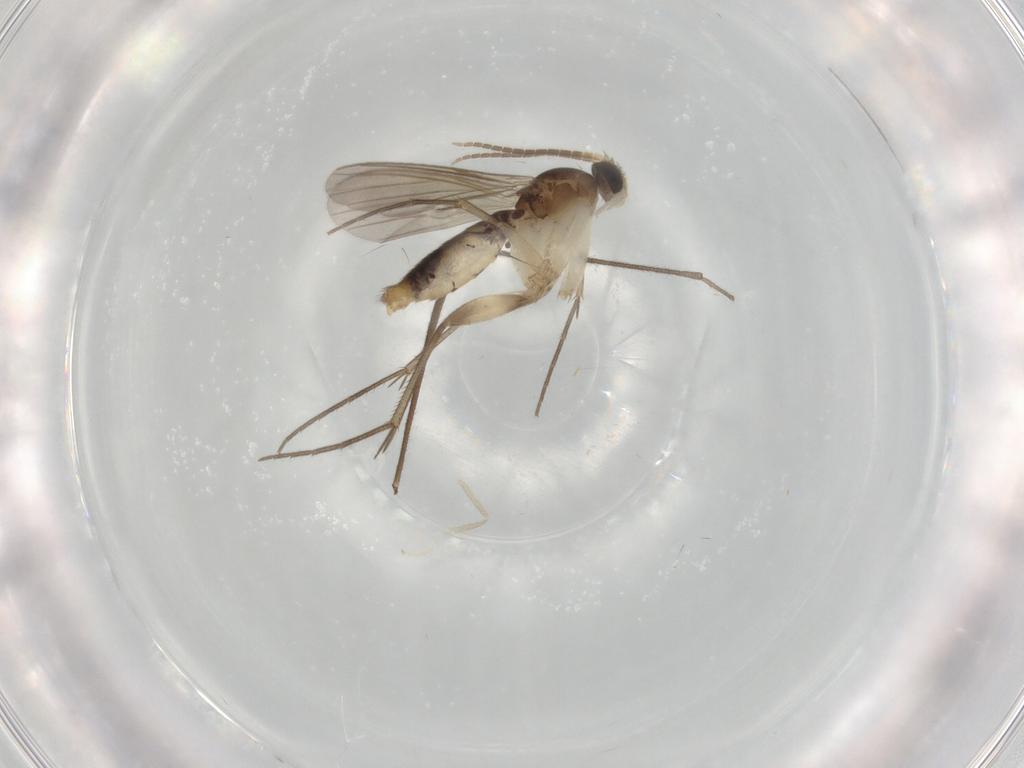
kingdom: Animalia
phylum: Arthropoda
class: Insecta
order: Diptera
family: Mycetophilidae
